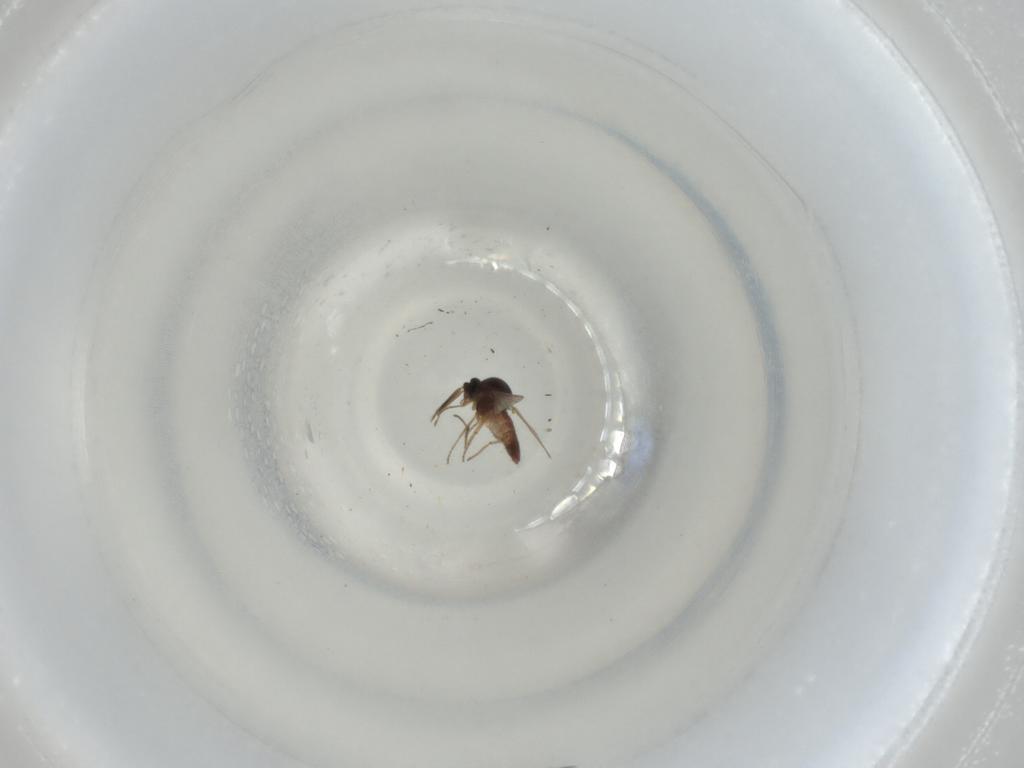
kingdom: Animalia
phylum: Arthropoda
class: Insecta
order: Diptera
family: Ceratopogonidae
